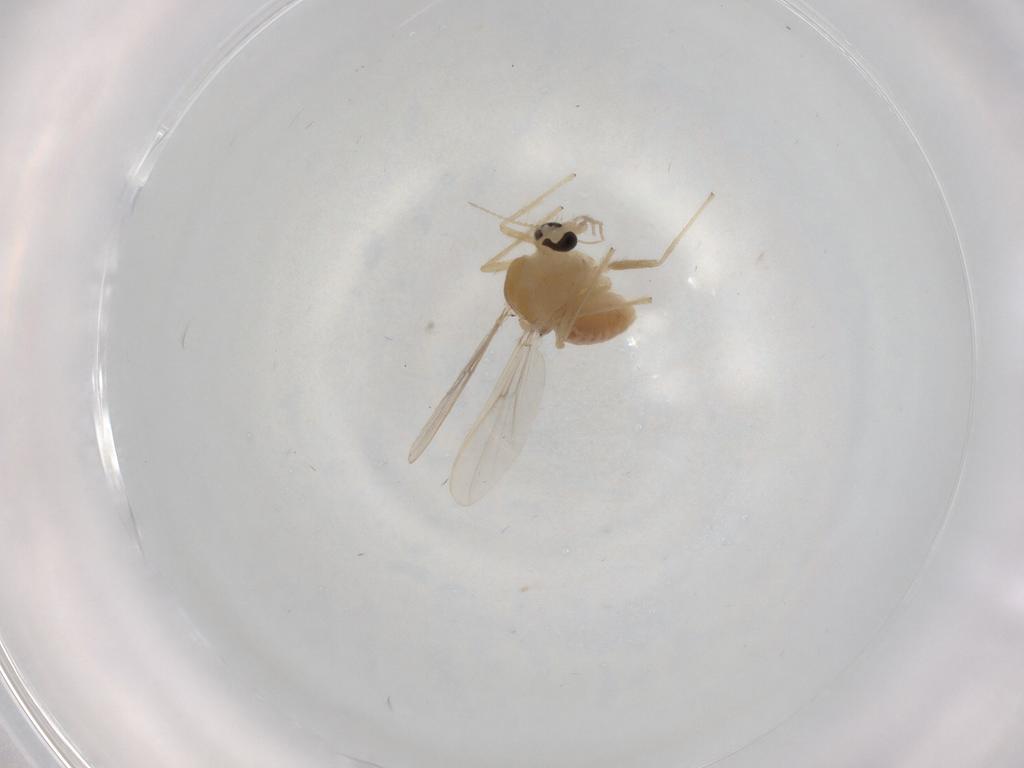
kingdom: Animalia
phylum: Arthropoda
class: Insecta
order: Diptera
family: Chironomidae
